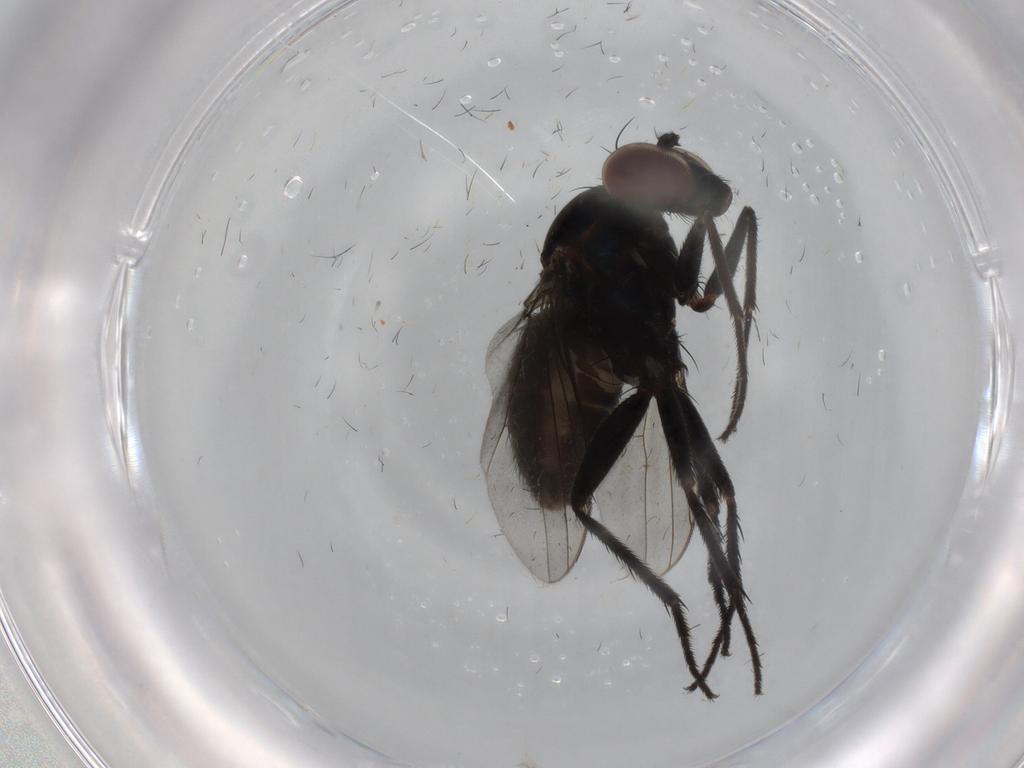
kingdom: Animalia
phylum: Arthropoda
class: Insecta
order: Diptera
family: Dolichopodidae
